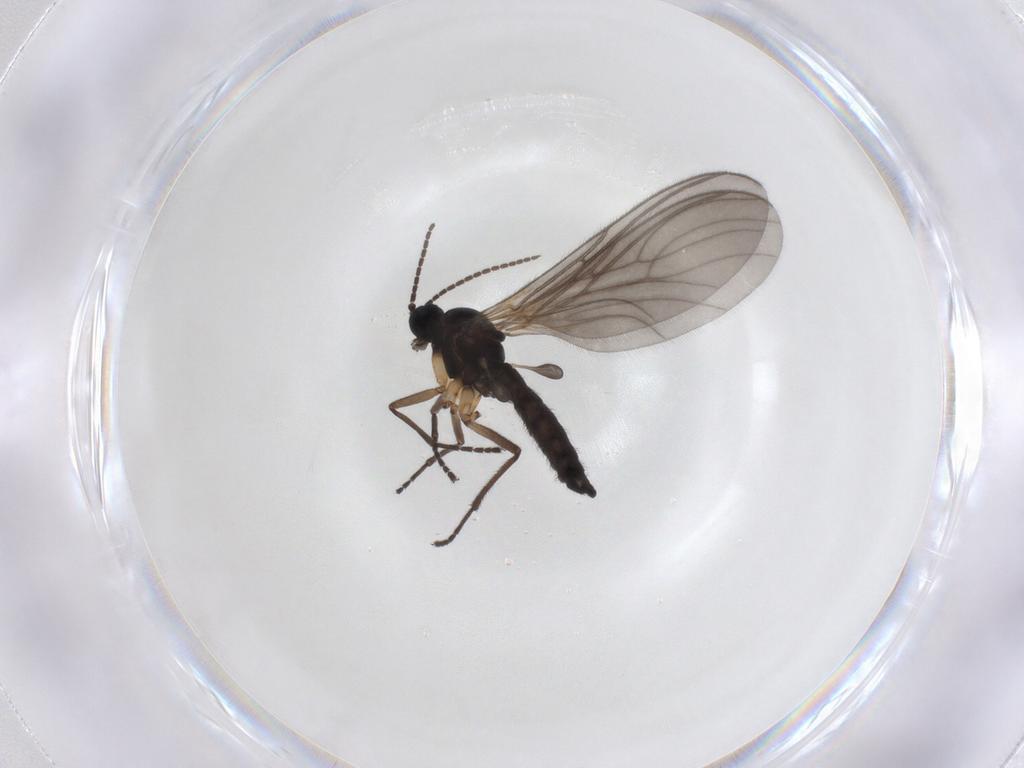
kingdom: Animalia
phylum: Arthropoda
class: Insecta
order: Diptera
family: Sciaridae
